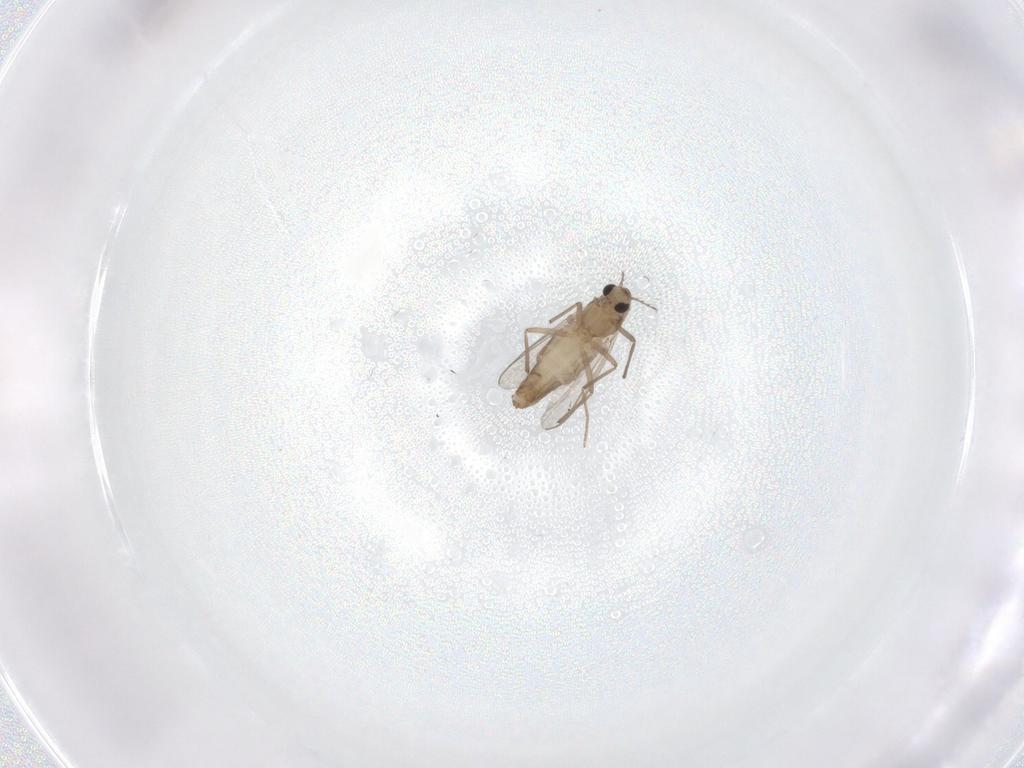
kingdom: Animalia
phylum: Arthropoda
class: Insecta
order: Diptera
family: Chironomidae
